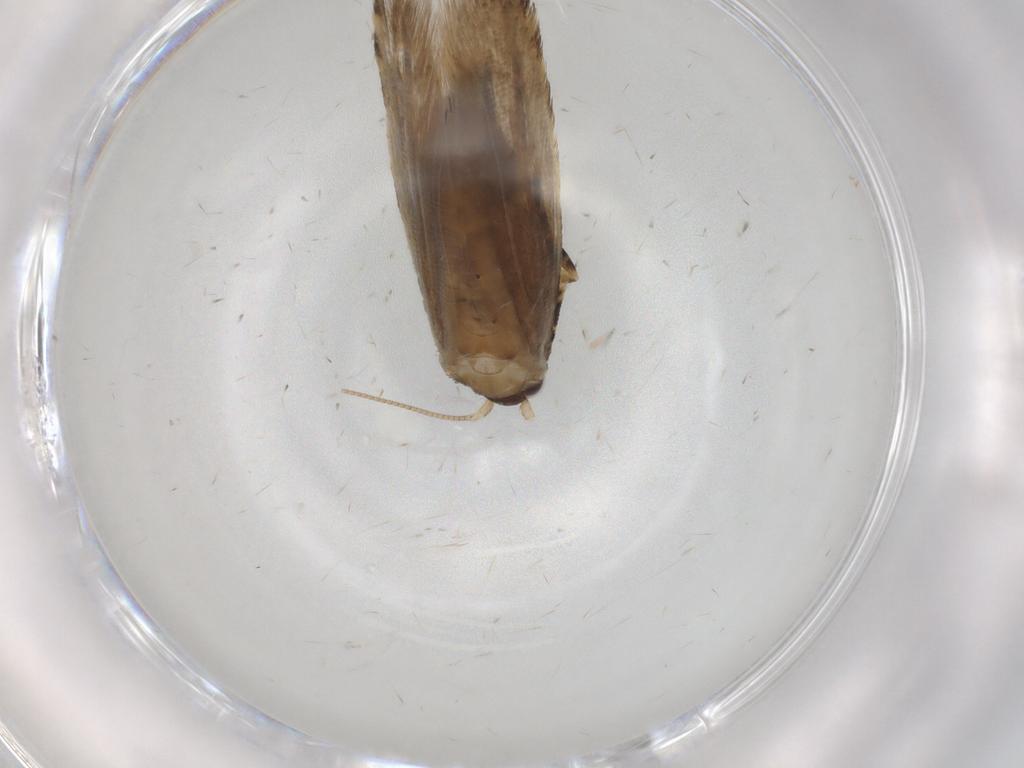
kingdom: Animalia
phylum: Arthropoda
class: Insecta
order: Lepidoptera
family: Tineidae
